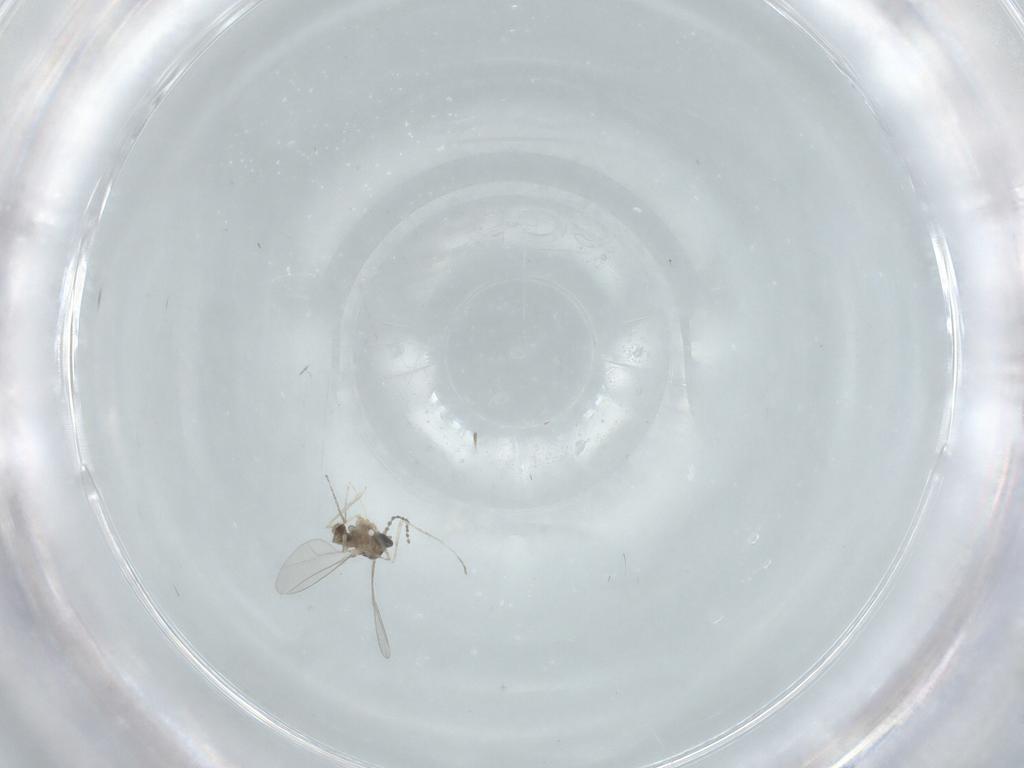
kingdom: Animalia
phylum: Arthropoda
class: Insecta
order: Diptera
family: Cecidomyiidae
